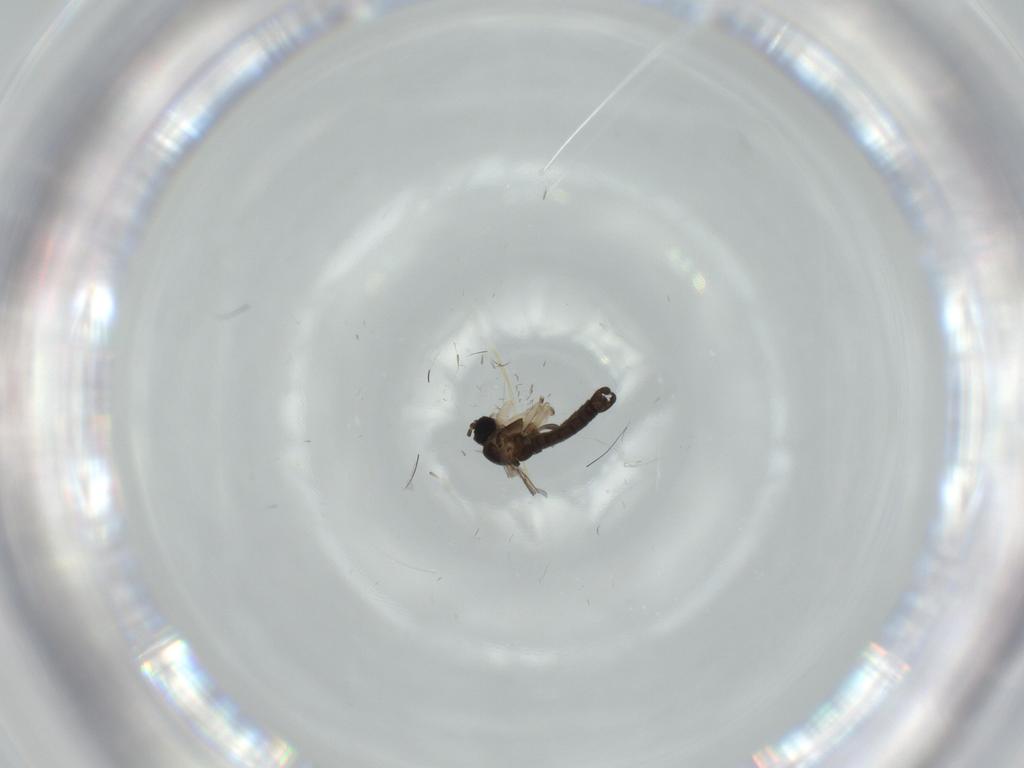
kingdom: Animalia
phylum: Arthropoda
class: Insecta
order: Diptera
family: Sciaridae
